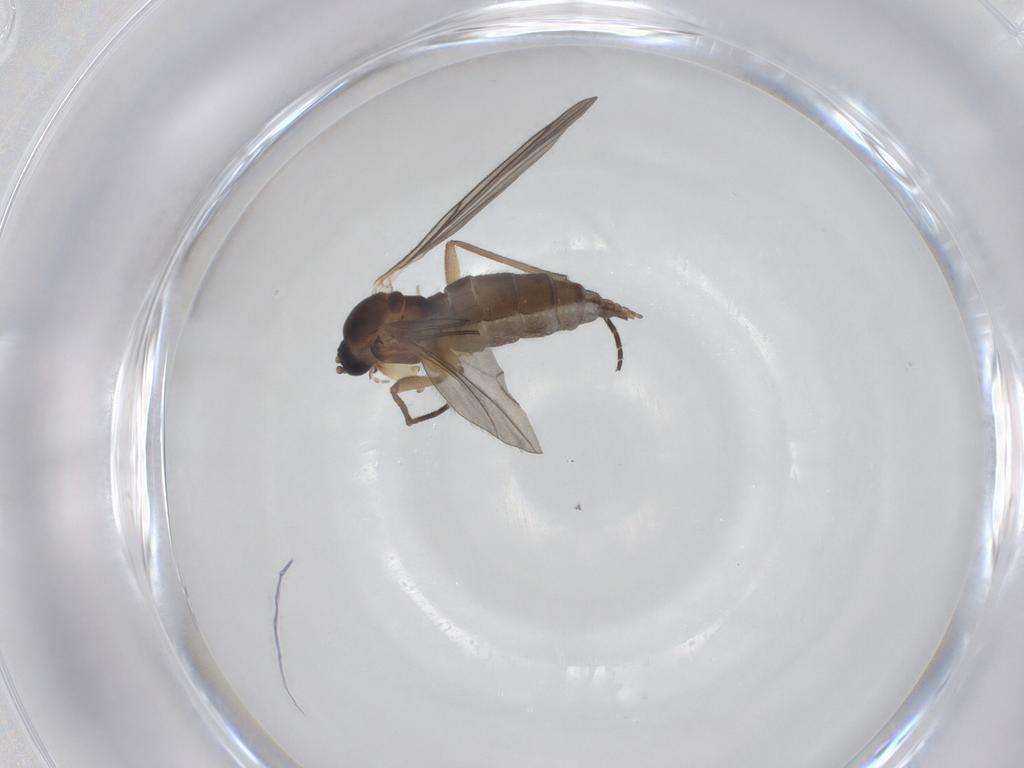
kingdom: Animalia
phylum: Arthropoda
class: Insecta
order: Diptera
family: Sciaridae
